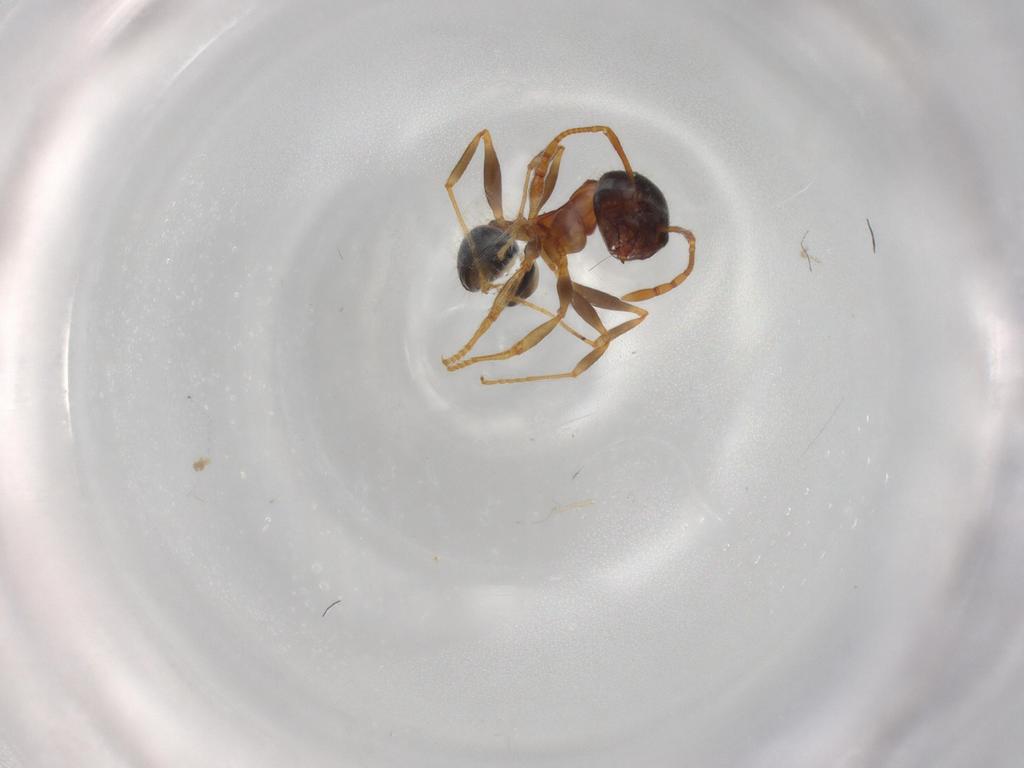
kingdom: Animalia
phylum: Arthropoda
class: Insecta
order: Hymenoptera
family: Formicidae
